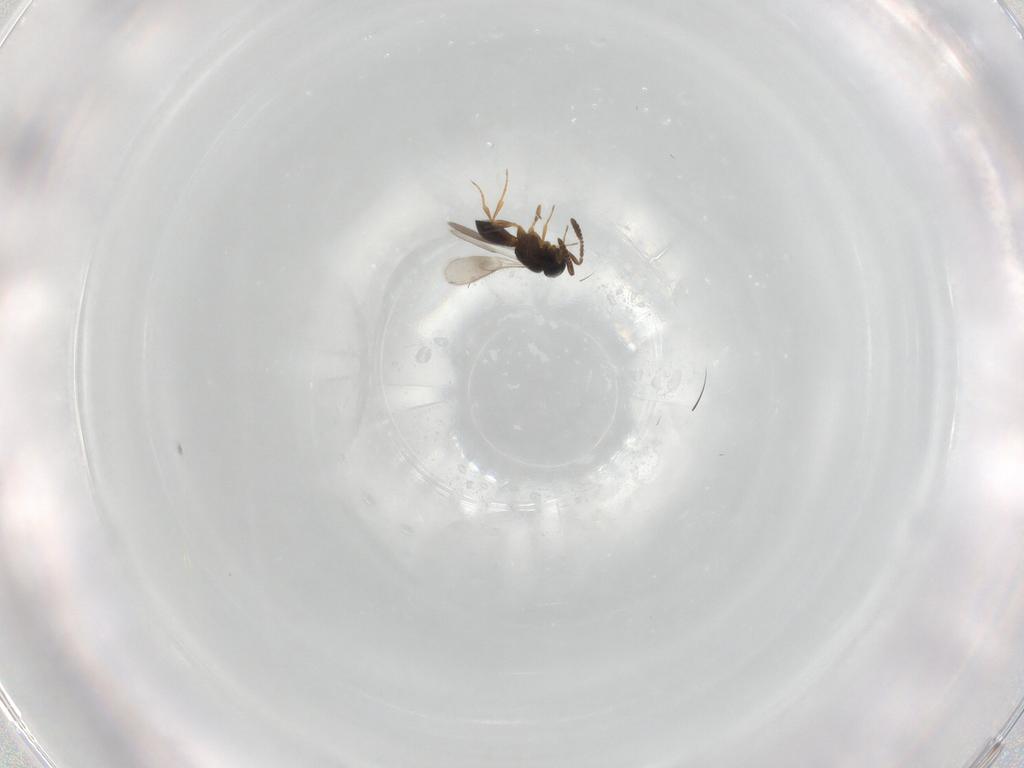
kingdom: Animalia
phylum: Arthropoda
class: Insecta
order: Hymenoptera
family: Scelionidae
